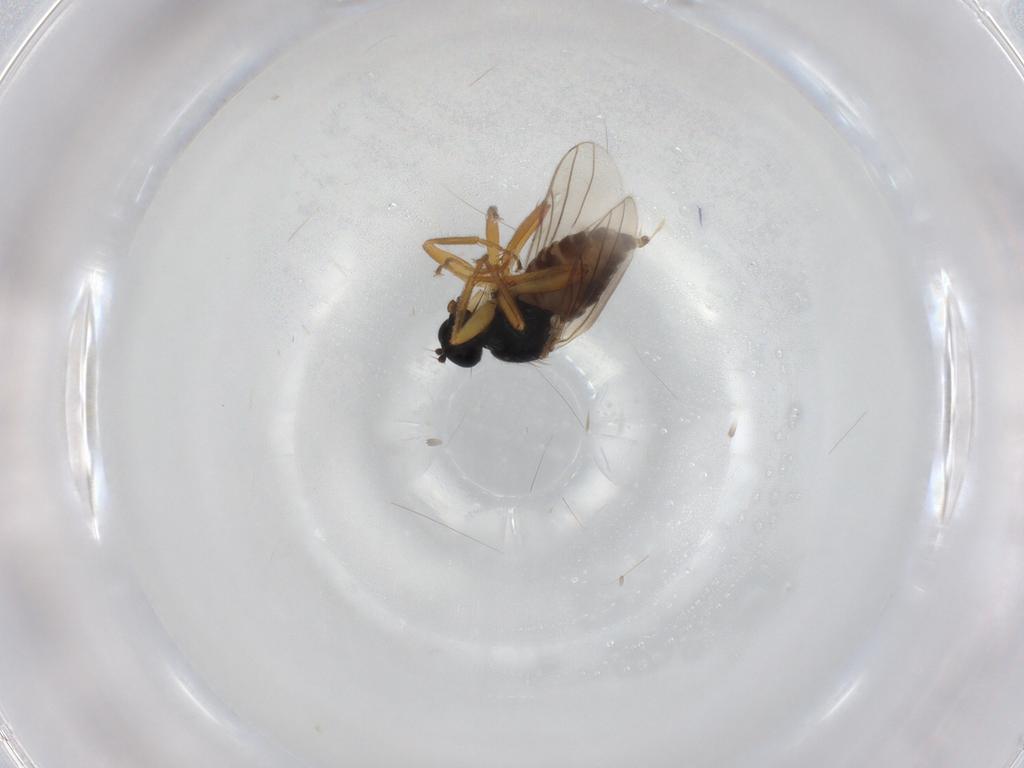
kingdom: Animalia
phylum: Arthropoda
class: Insecta
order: Diptera
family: Hybotidae
